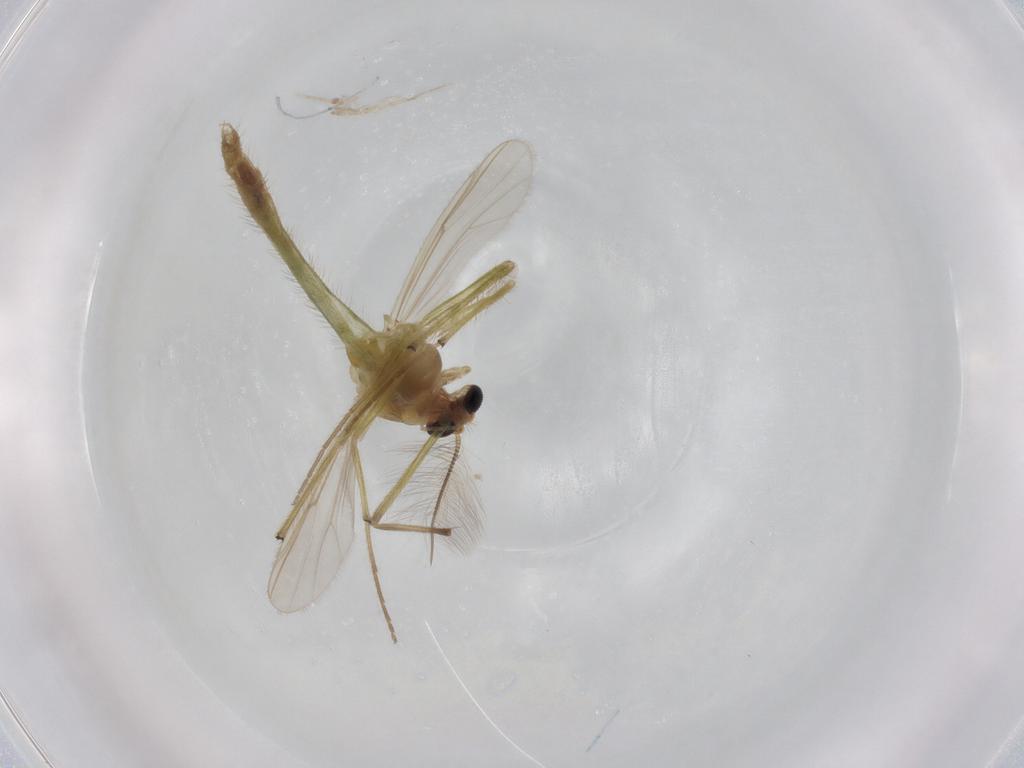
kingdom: Animalia
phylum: Arthropoda
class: Insecta
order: Diptera
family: Chironomidae
